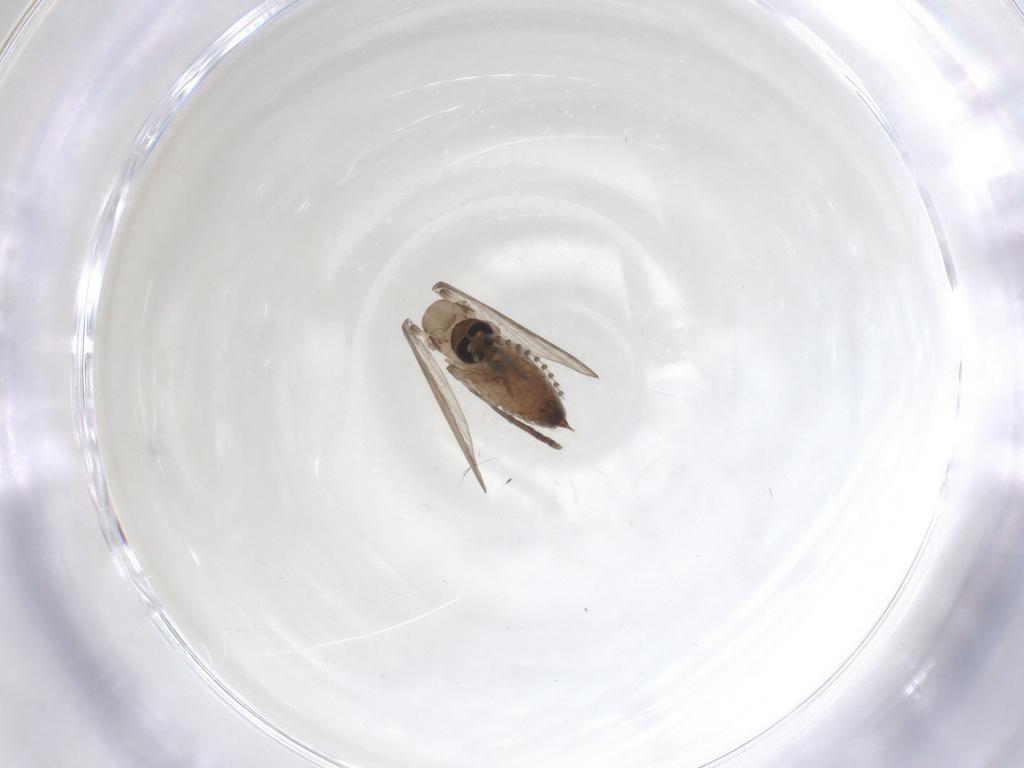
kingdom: Animalia
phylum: Arthropoda
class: Insecta
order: Diptera
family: Psychodidae
